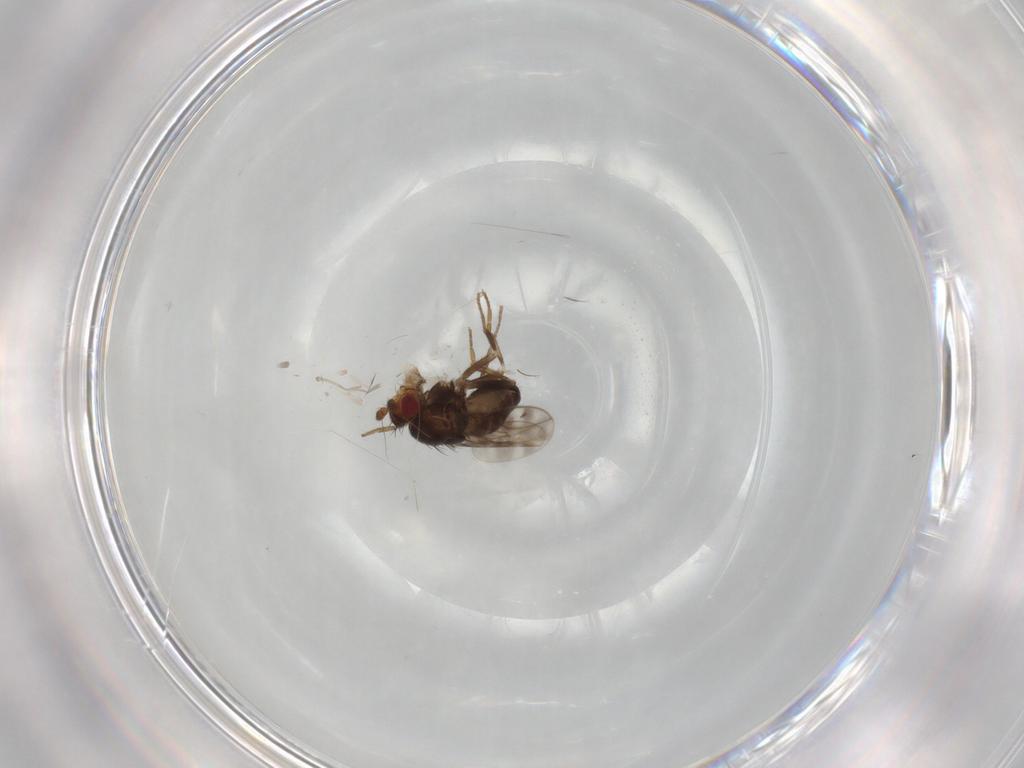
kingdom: Animalia
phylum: Arthropoda
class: Insecta
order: Diptera
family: Sphaeroceridae
